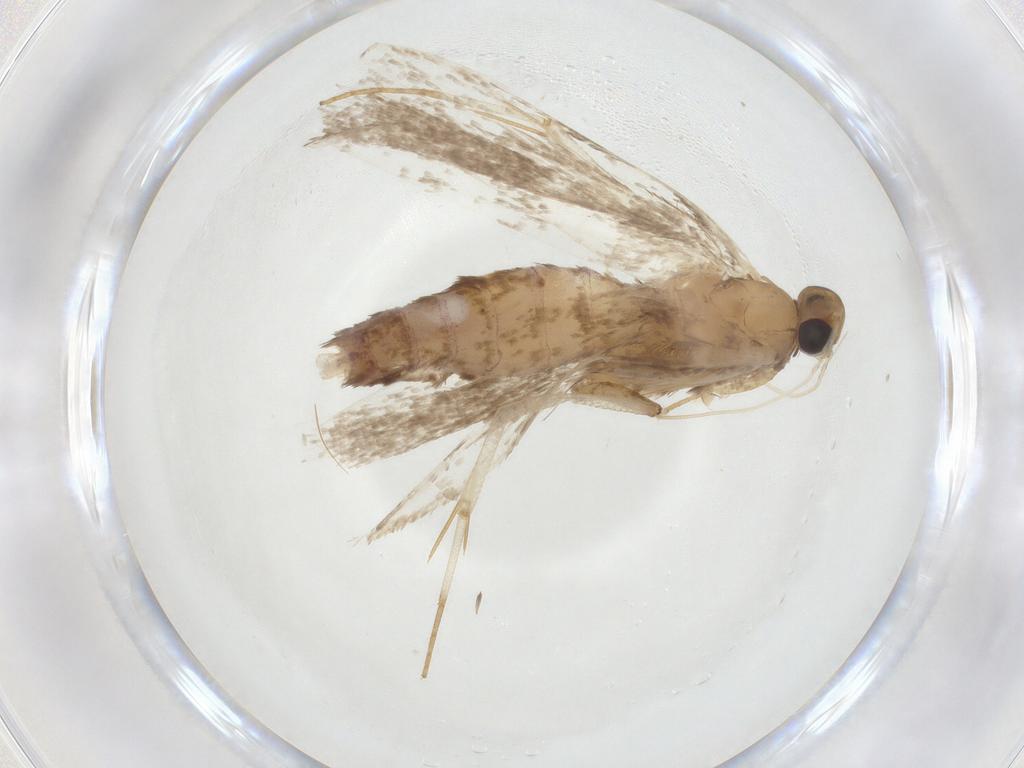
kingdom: Animalia
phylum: Arthropoda
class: Insecta
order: Lepidoptera
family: Gelechiidae
